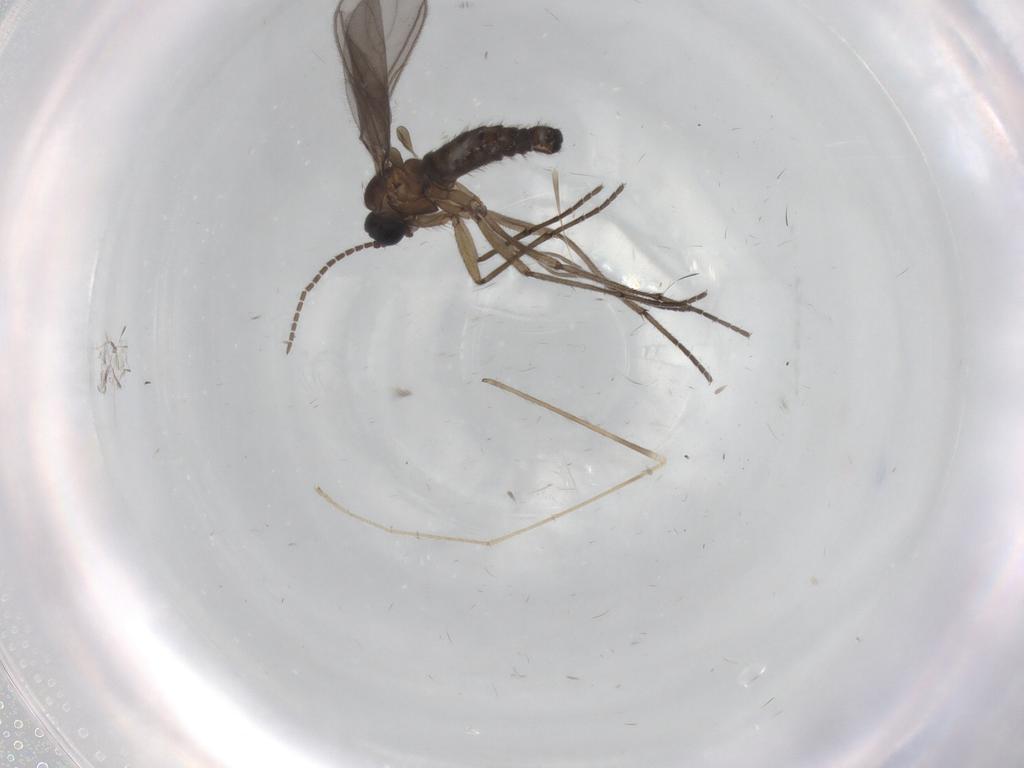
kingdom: Animalia
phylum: Arthropoda
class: Insecta
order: Diptera
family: Sciaridae
